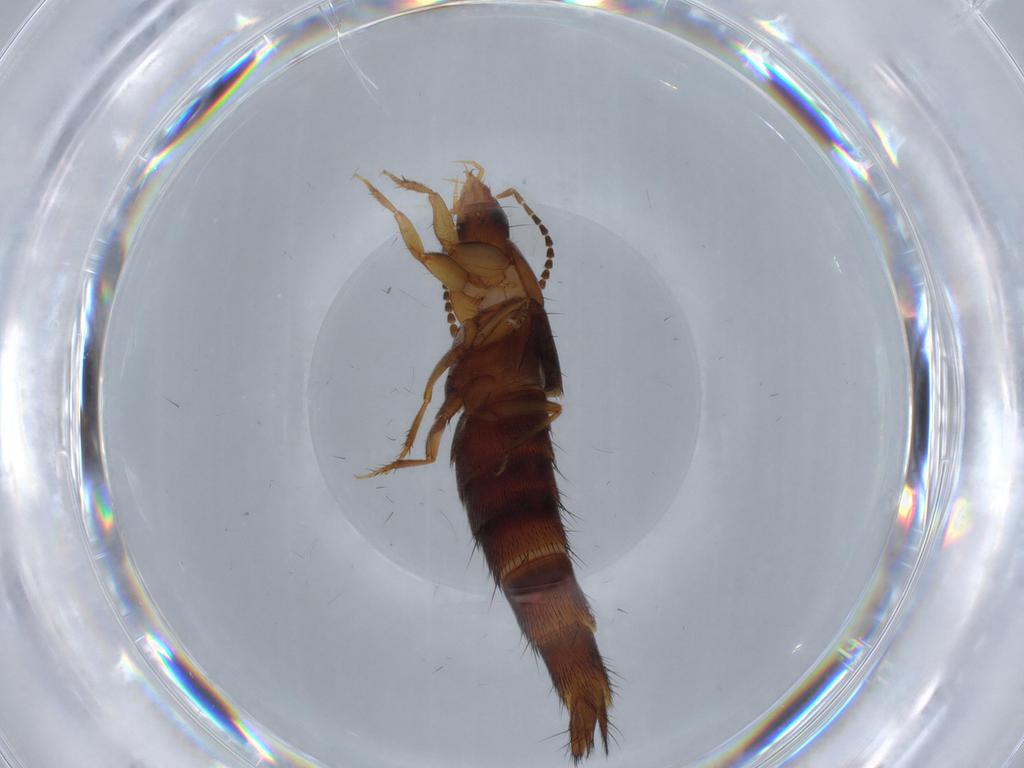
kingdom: Animalia
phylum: Arthropoda
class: Insecta
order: Coleoptera
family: Staphylinidae
